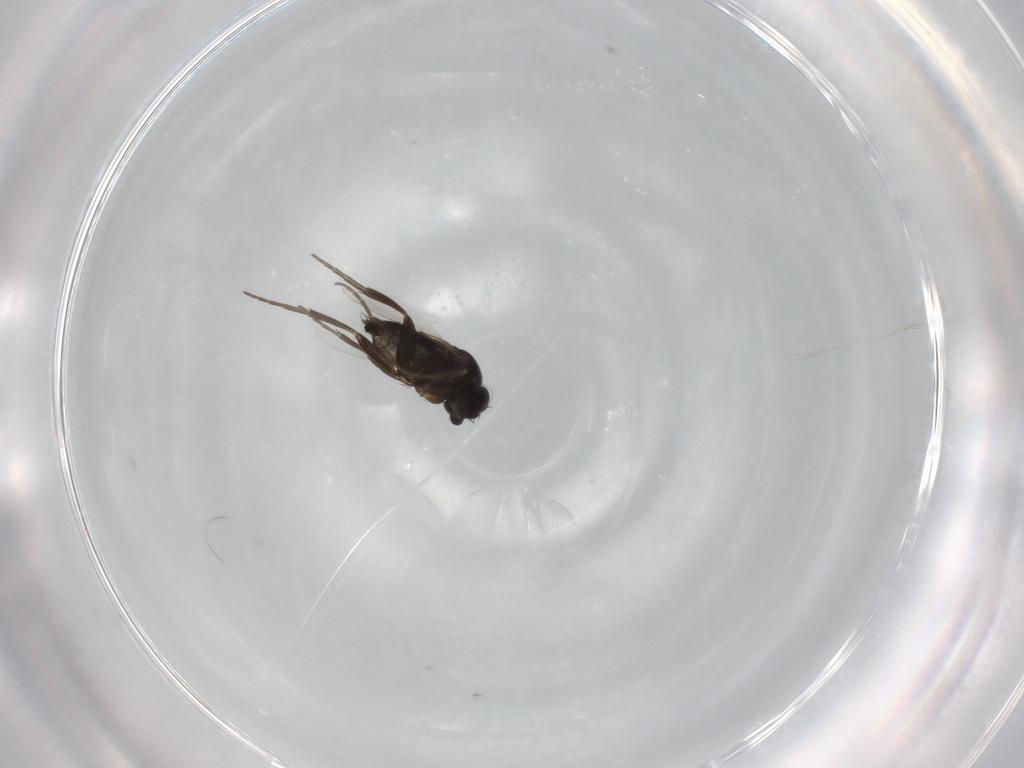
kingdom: Animalia
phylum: Arthropoda
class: Insecta
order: Diptera
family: Phoridae
